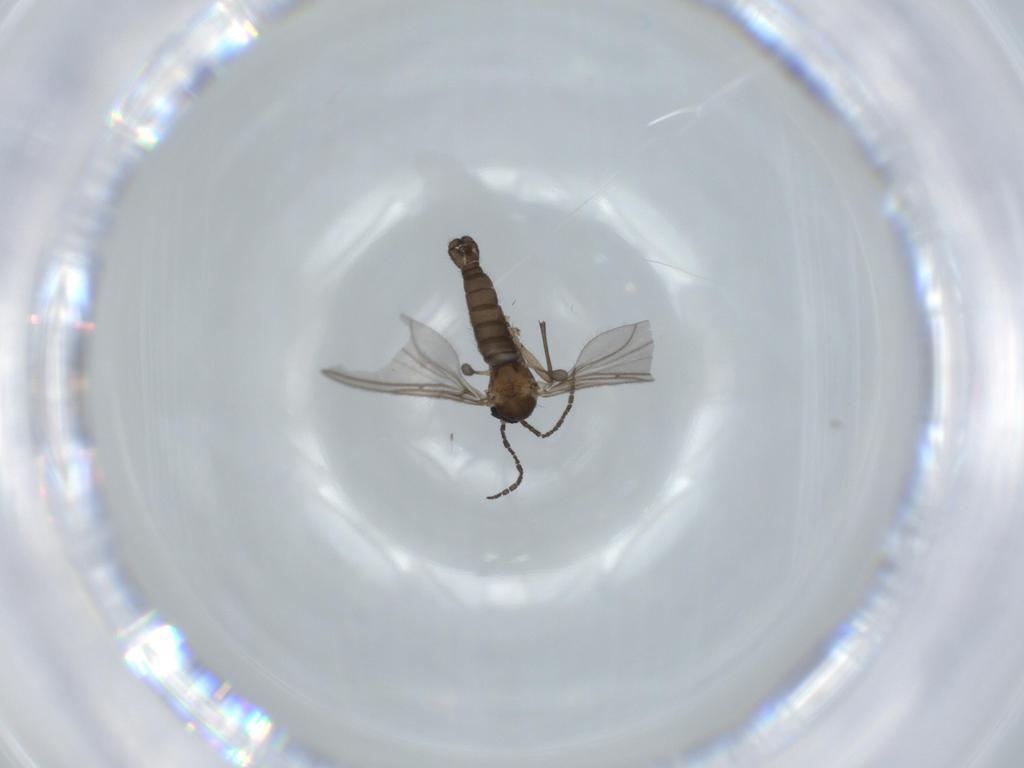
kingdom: Animalia
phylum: Arthropoda
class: Insecta
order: Diptera
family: Sciaridae
